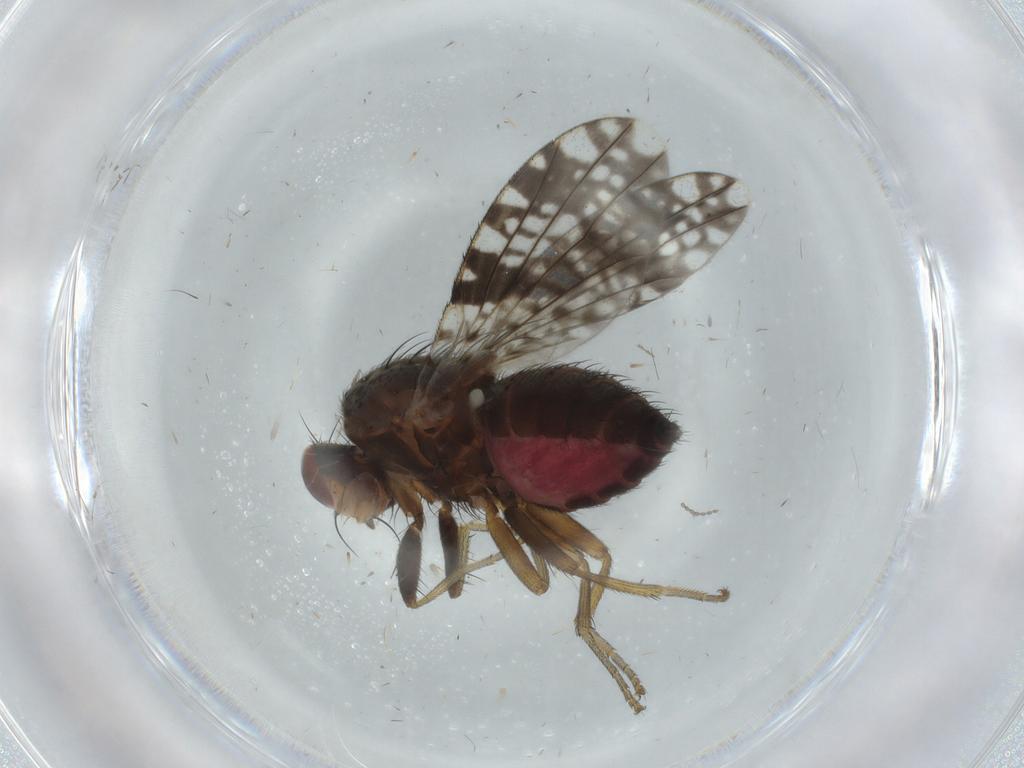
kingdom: Animalia
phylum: Arthropoda
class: Insecta
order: Diptera
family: Tephritidae
